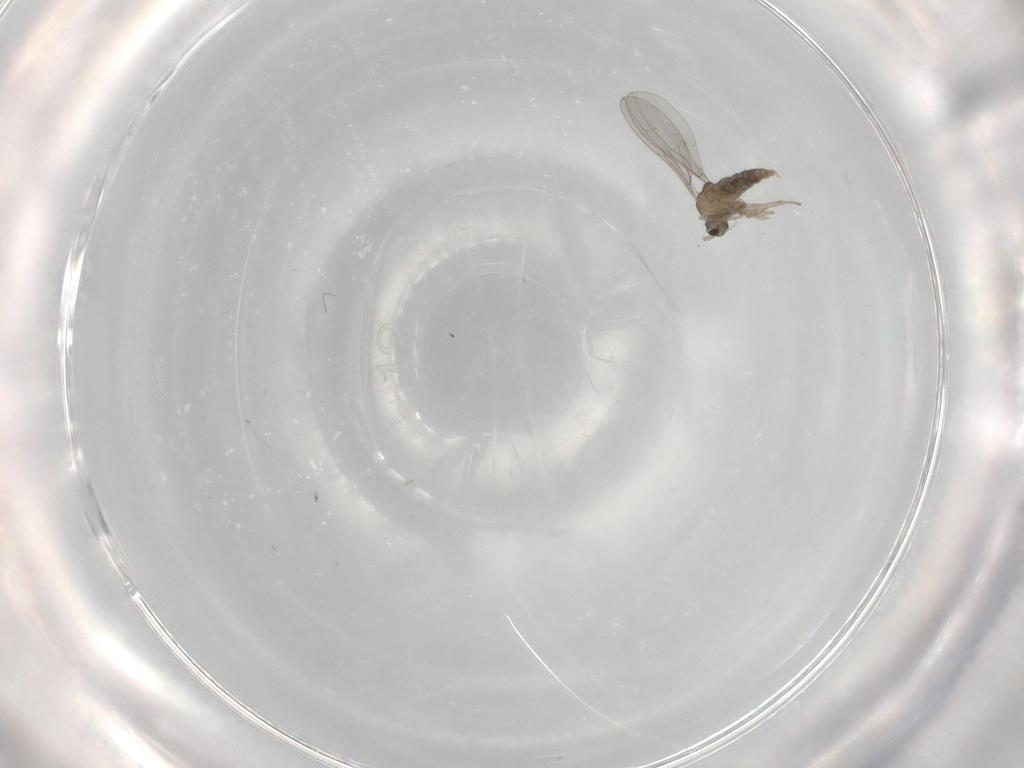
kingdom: Animalia
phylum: Arthropoda
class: Insecta
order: Diptera
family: Cecidomyiidae
